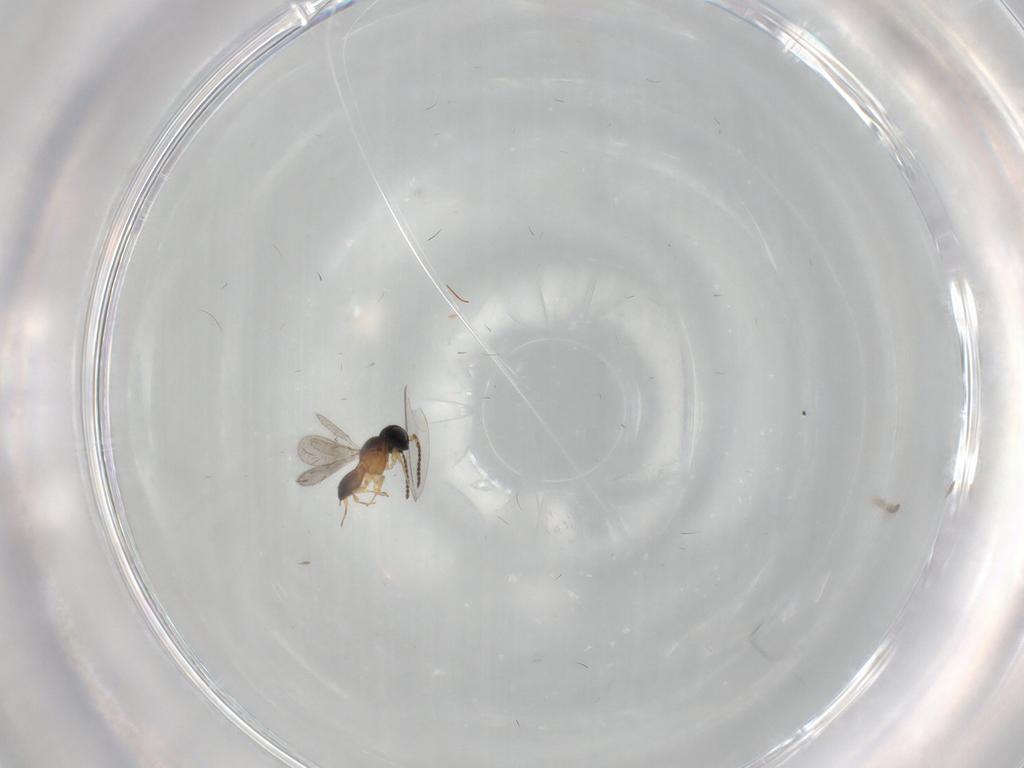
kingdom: Animalia
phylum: Arthropoda
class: Insecta
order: Hymenoptera
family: Scelionidae
